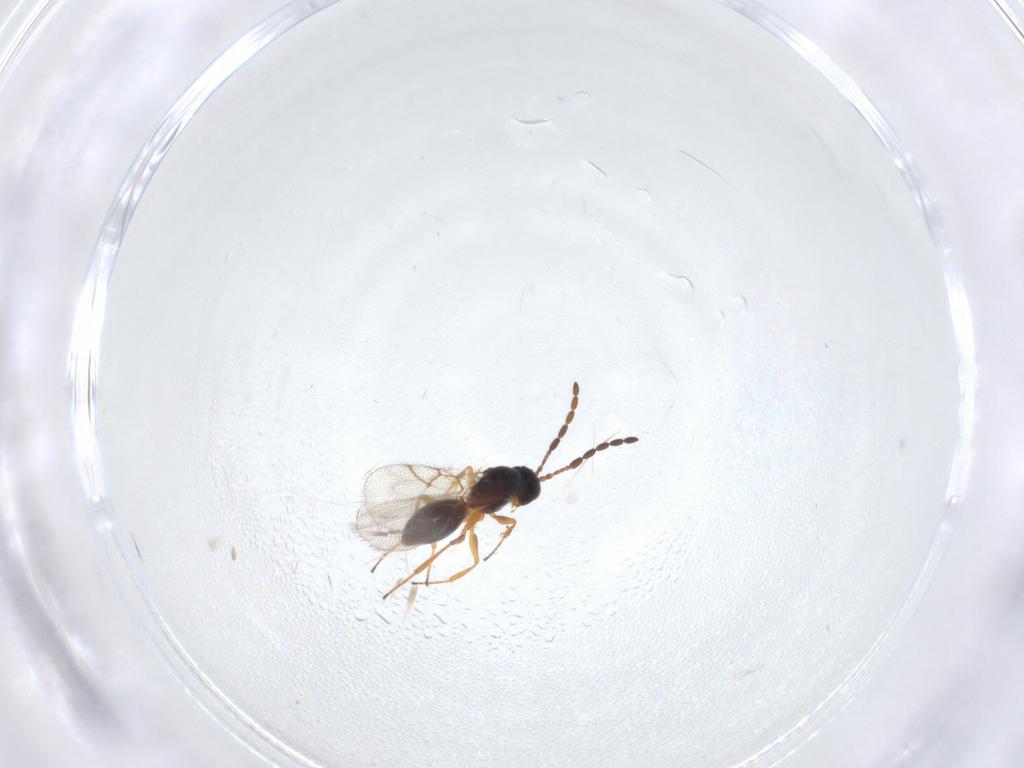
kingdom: Animalia
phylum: Arthropoda
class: Insecta
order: Hymenoptera
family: Figitidae
